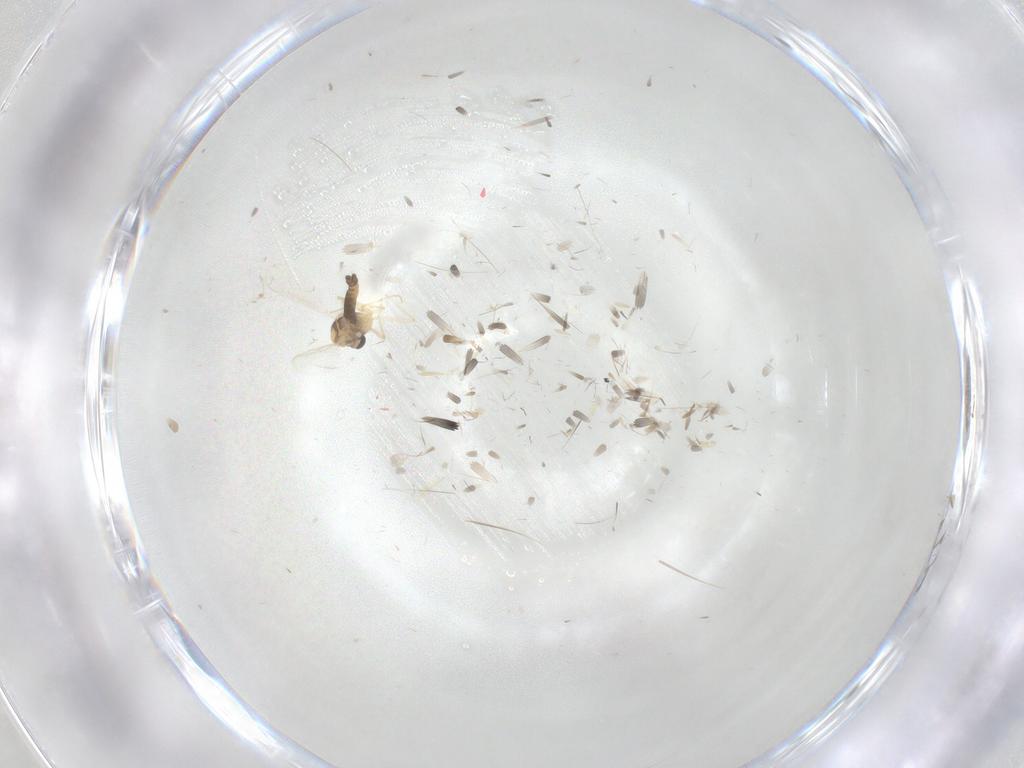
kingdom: Animalia
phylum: Arthropoda
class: Insecta
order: Diptera
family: Chironomidae
